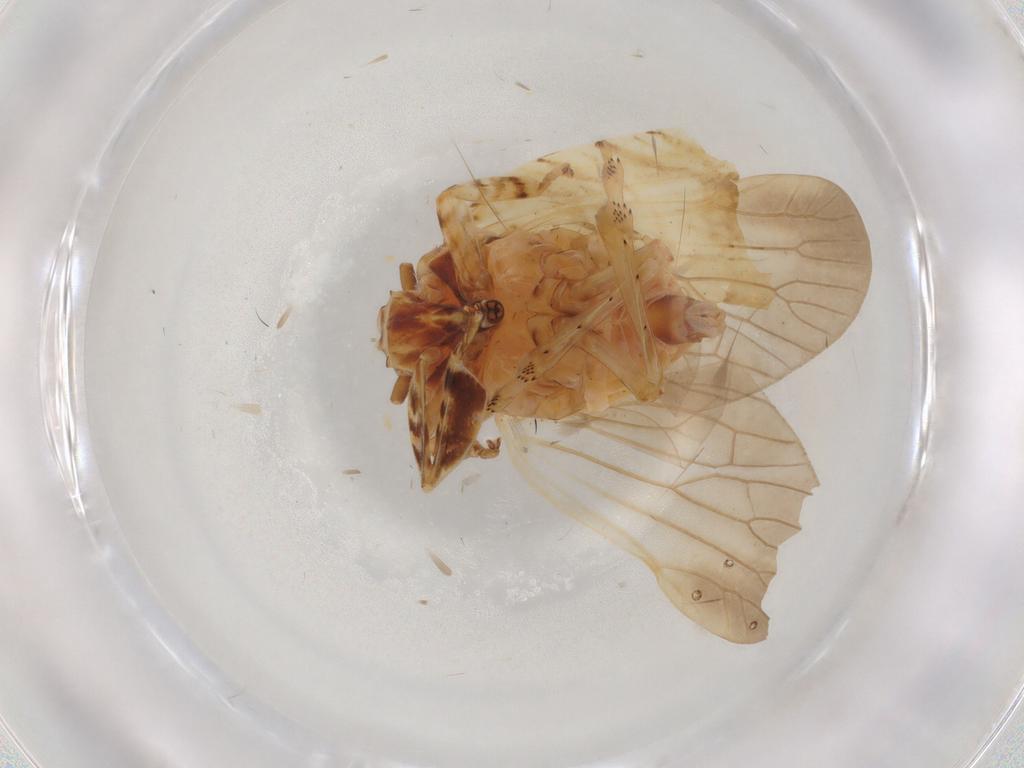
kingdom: Animalia
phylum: Arthropoda
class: Insecta
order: Hemiptera
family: Lophopidae
